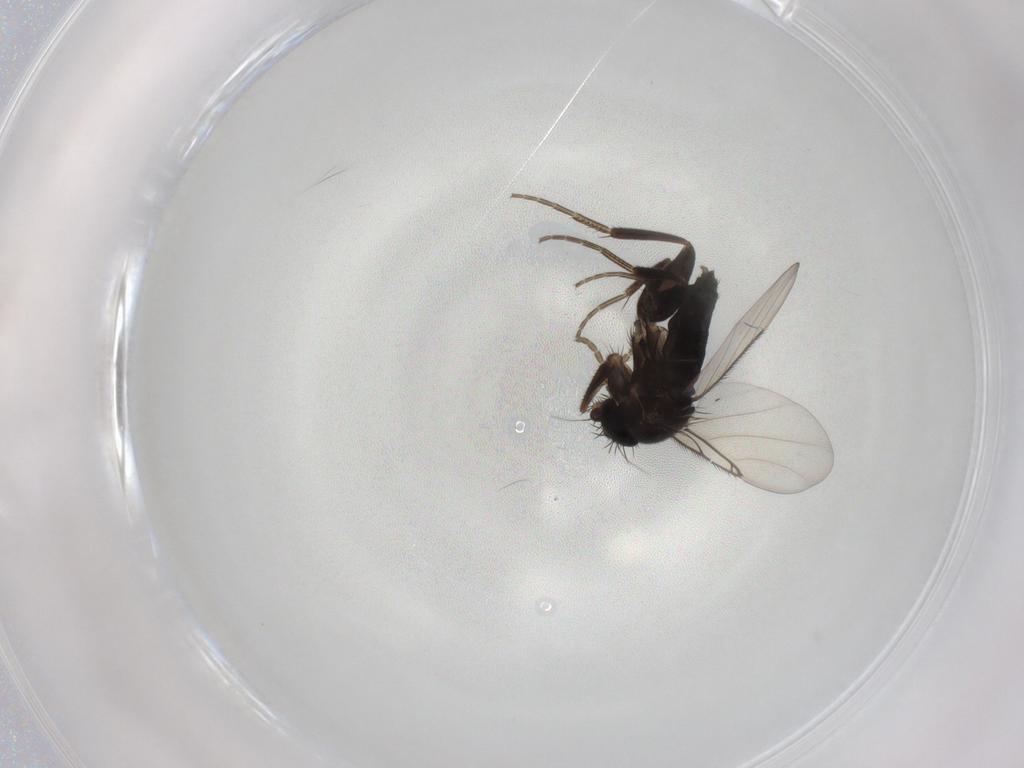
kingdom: Animalia
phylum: Arthropoda
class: Insecta
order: Diptera
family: Phoridae
